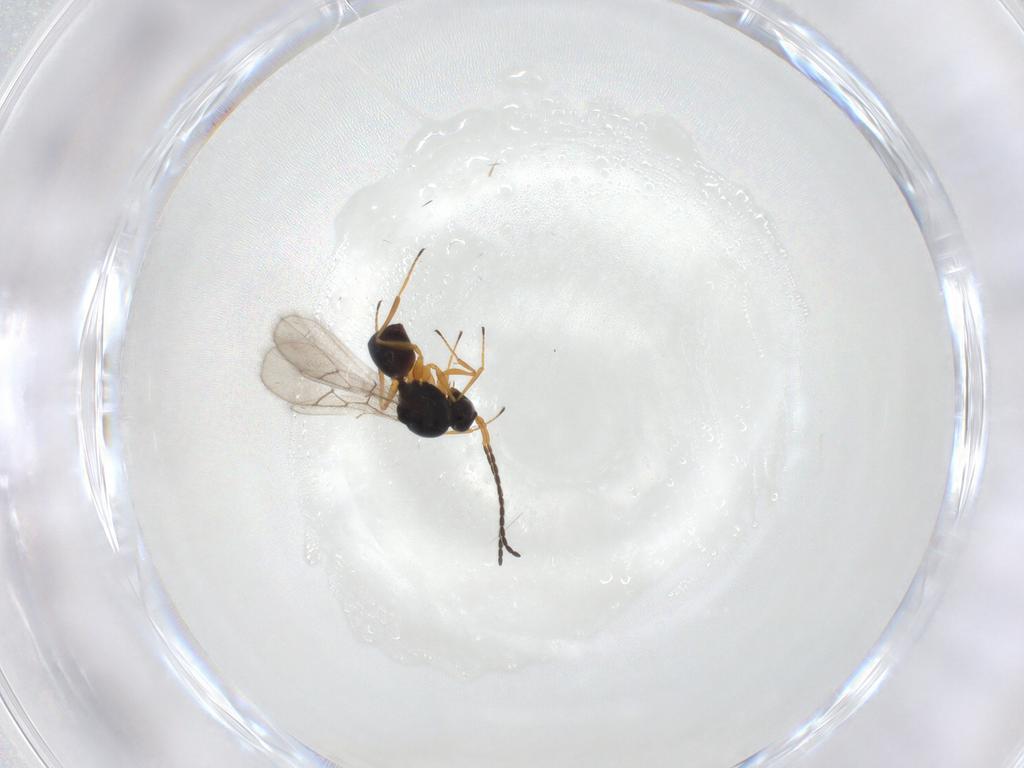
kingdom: Animalia
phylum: Arthropoda
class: Insecta
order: Hymenoptera
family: Figitidae
